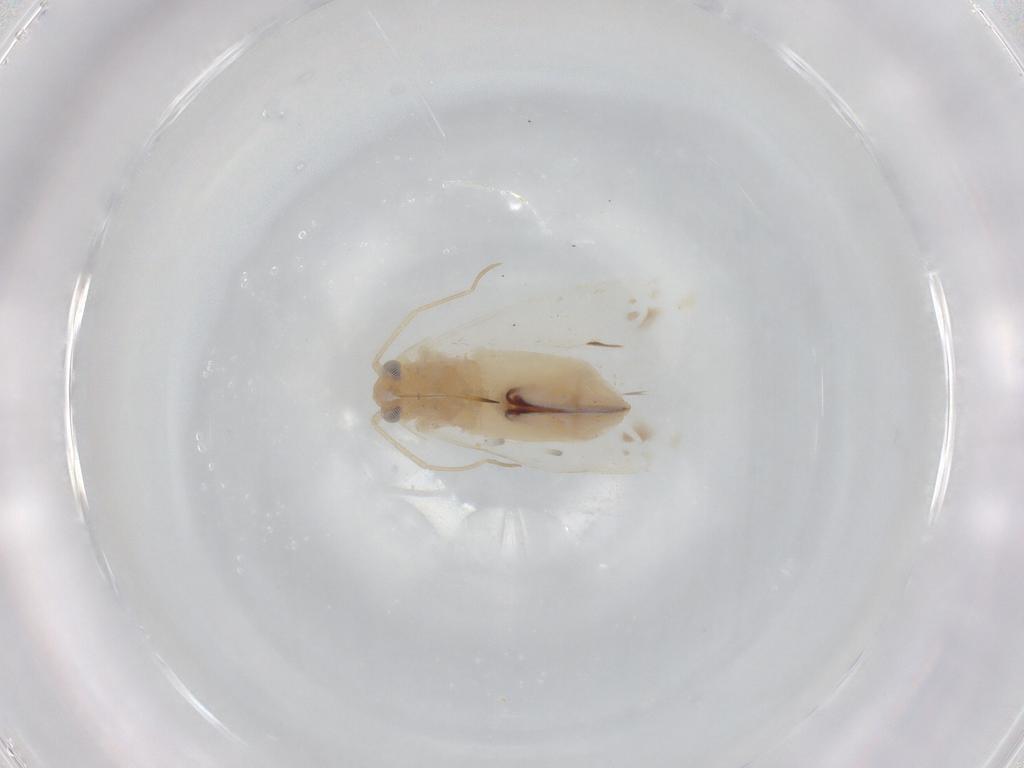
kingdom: Animalia
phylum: Arthropoda
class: Insecta
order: Hemiptera
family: Miridae
